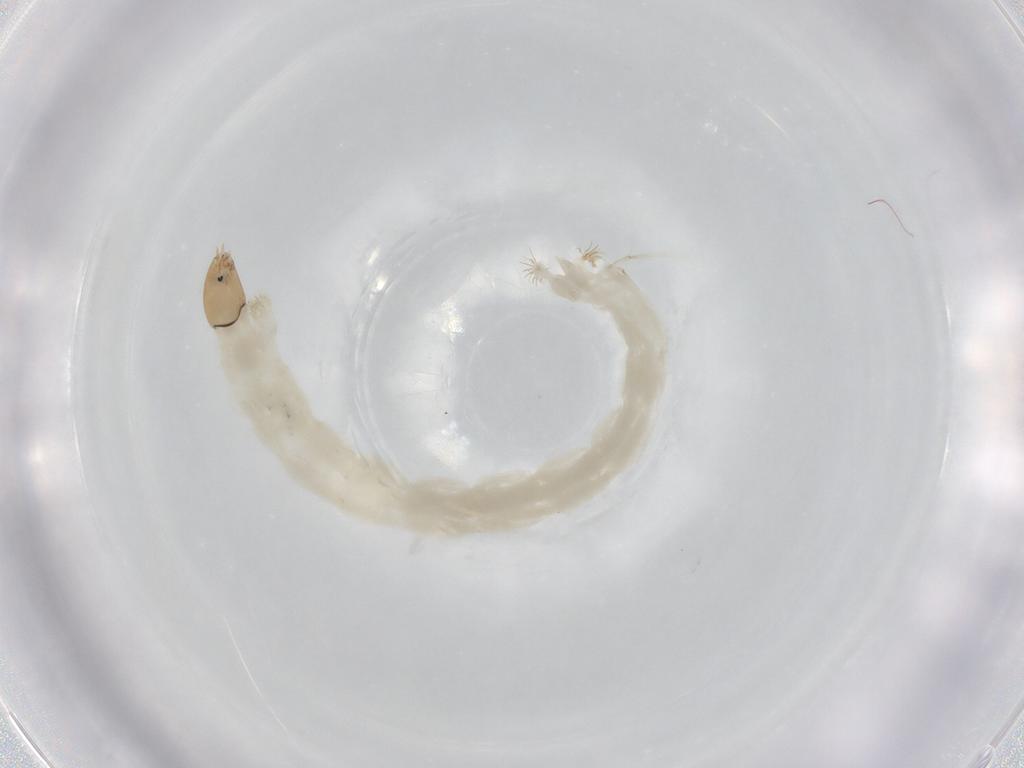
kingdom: Animalia
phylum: Arthropoda
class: Insecta
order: Diptera
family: Chironomidae
